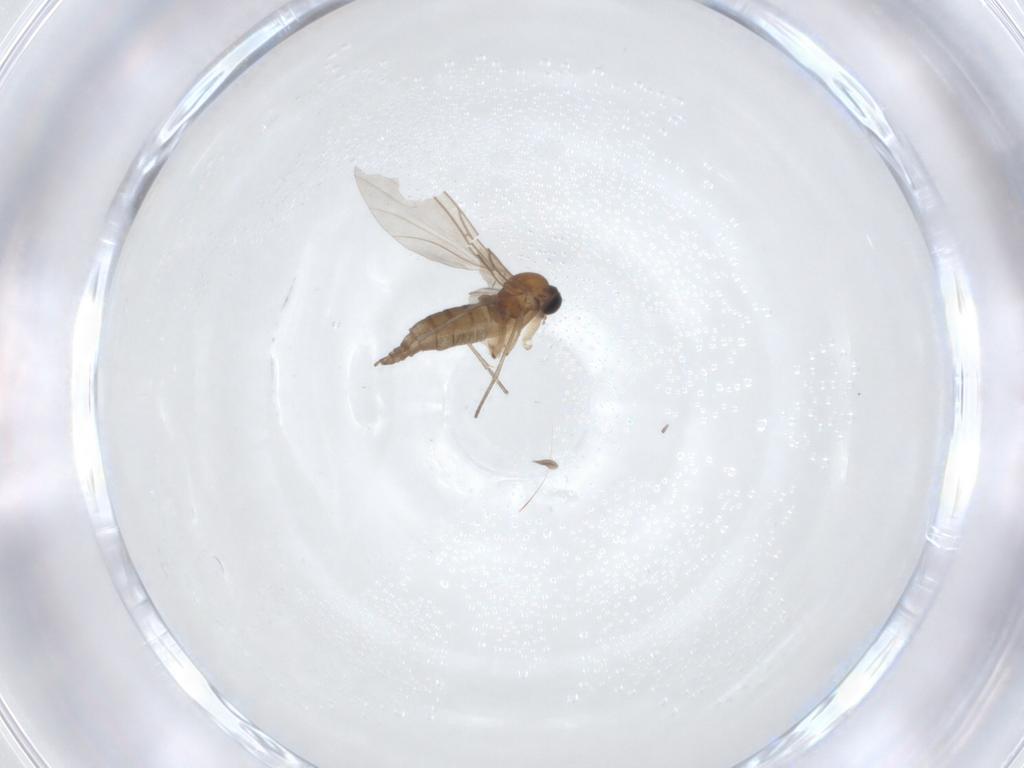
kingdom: Animalia
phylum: Arthropoda
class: Insecta
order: Diptera
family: Sciaridae
